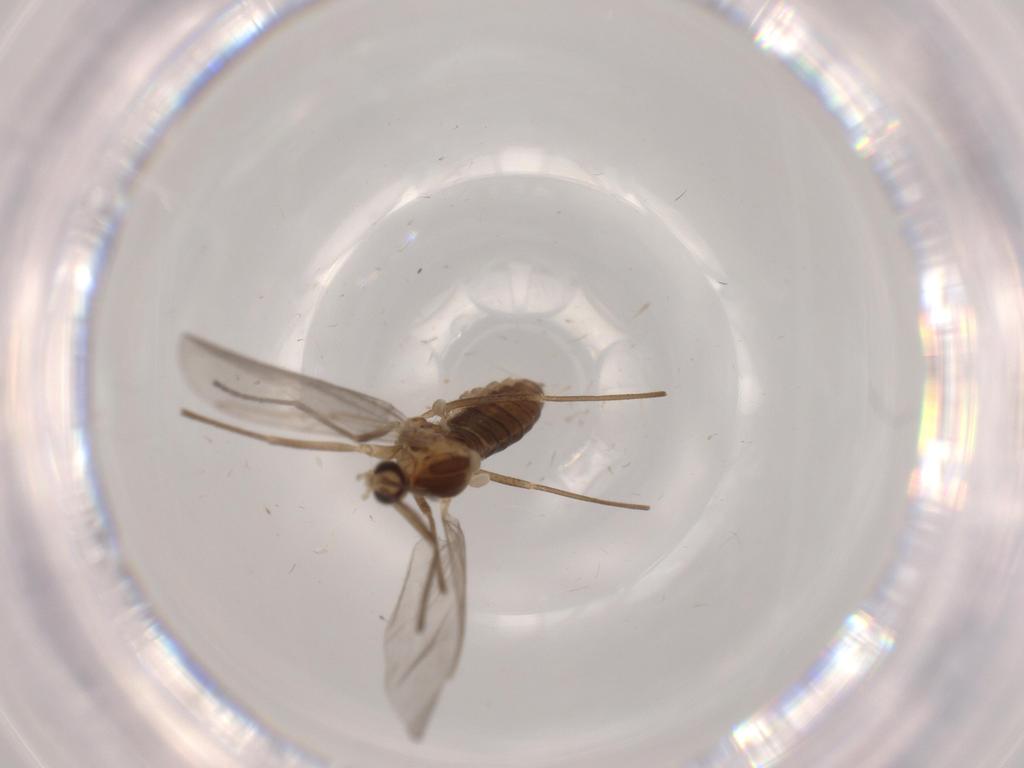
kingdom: Animalia
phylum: Arthropoda
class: Insecta
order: Diptera
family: Cecidomyiidae
